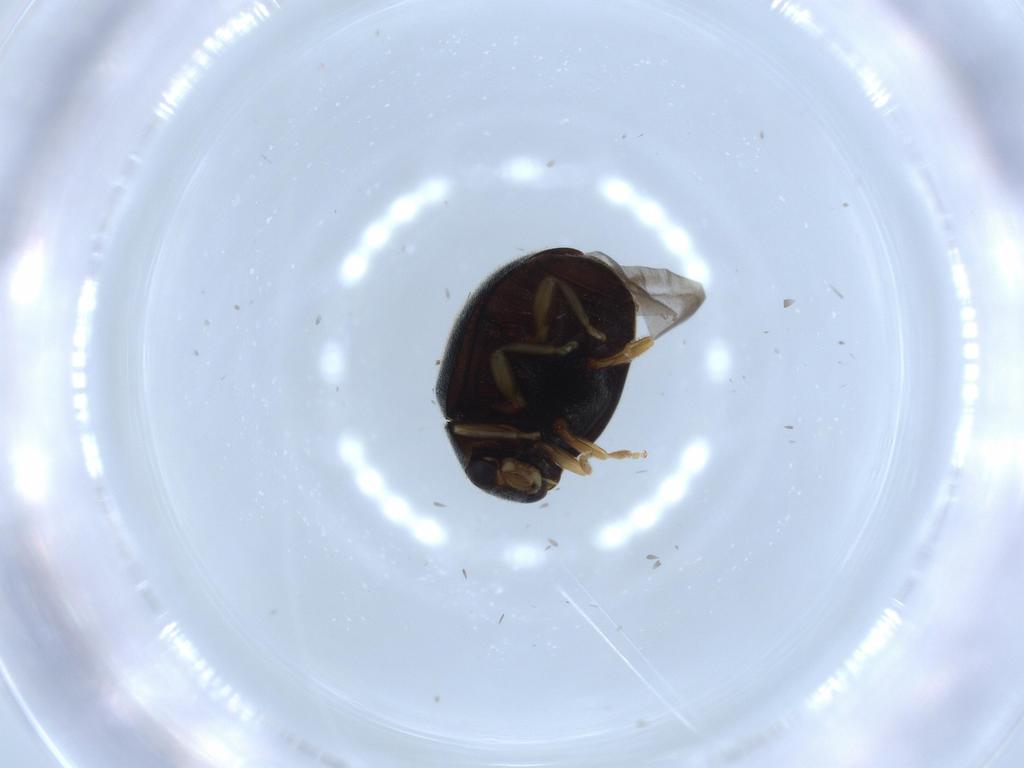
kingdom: Animalia
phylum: Arthropoda
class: Insecta
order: Coleoptera
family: Coccinellidae
